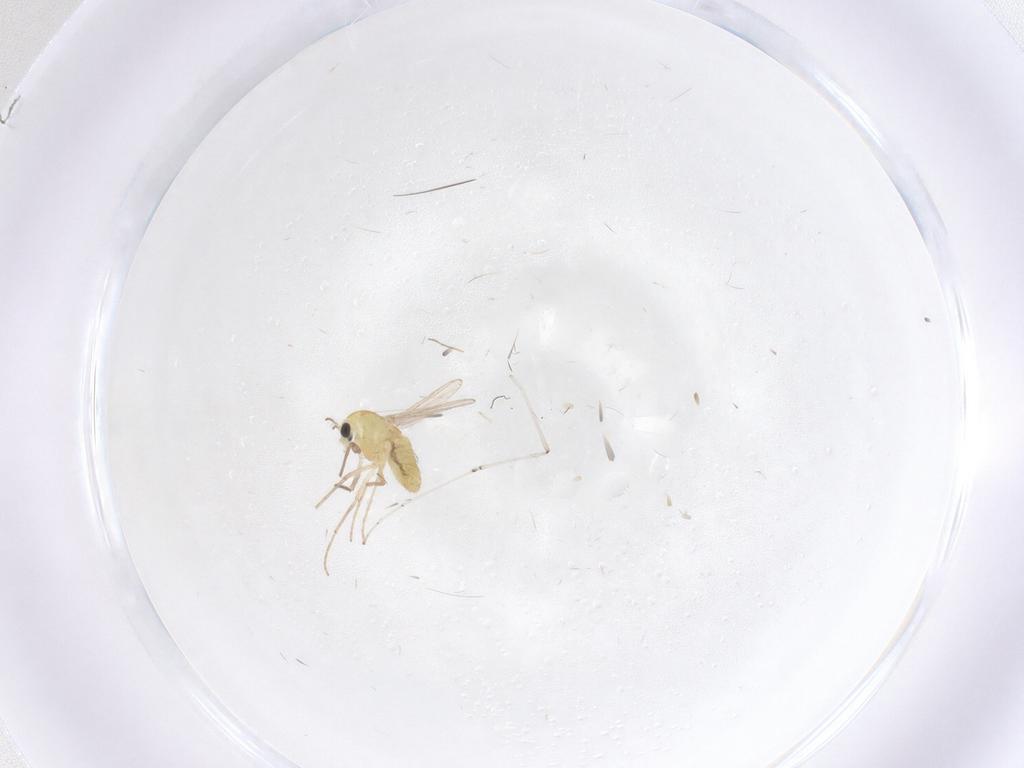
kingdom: Animalia
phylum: Arthropoda
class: Insecta
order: Diptera
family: Chironomidae
